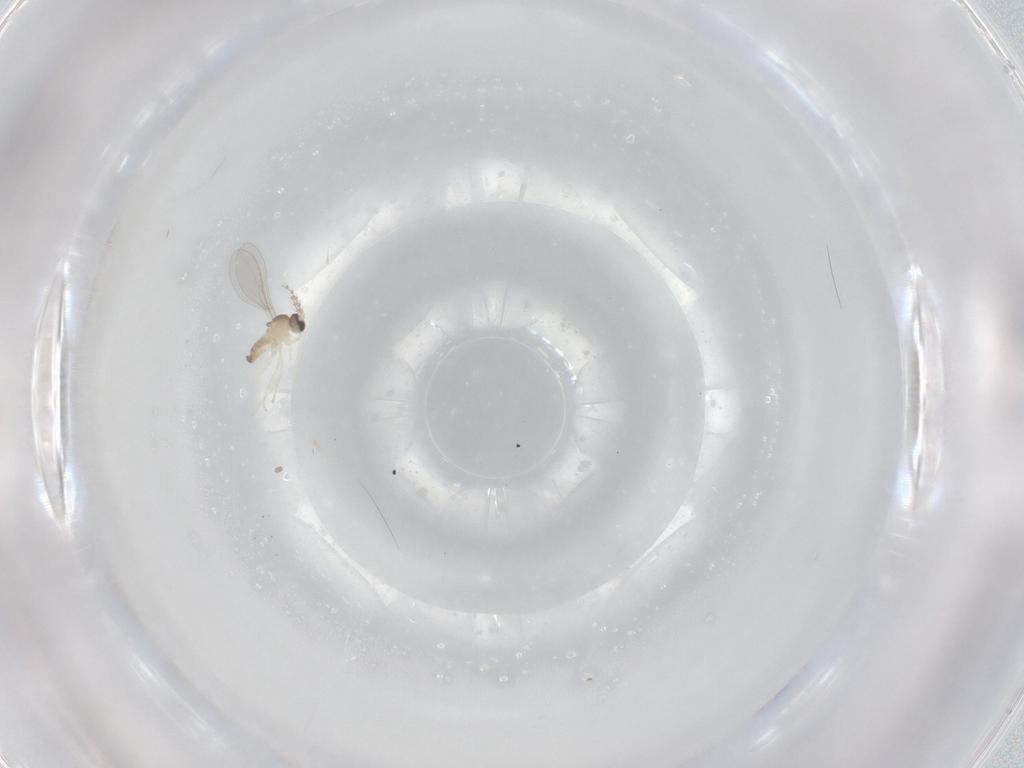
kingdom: Animalia
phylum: Arthropoda
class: Insecta
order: Diptera
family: Cecidomyiidae
